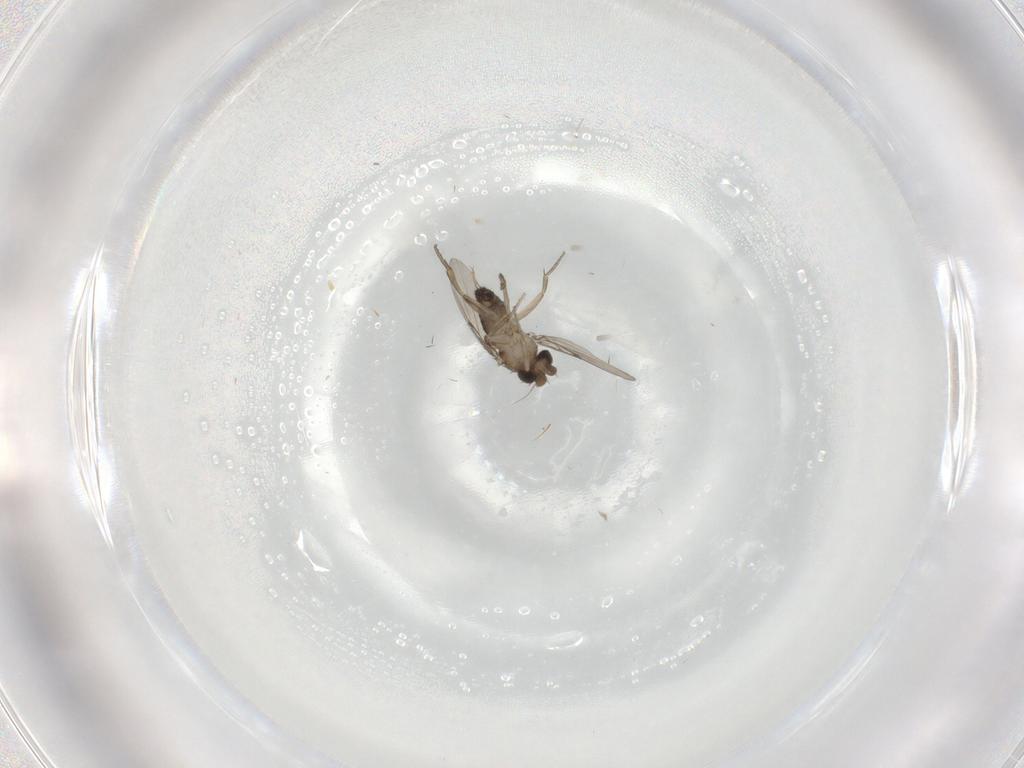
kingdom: Animalia
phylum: Arthropoda
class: Insecta
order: Diptera
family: Phoridae
